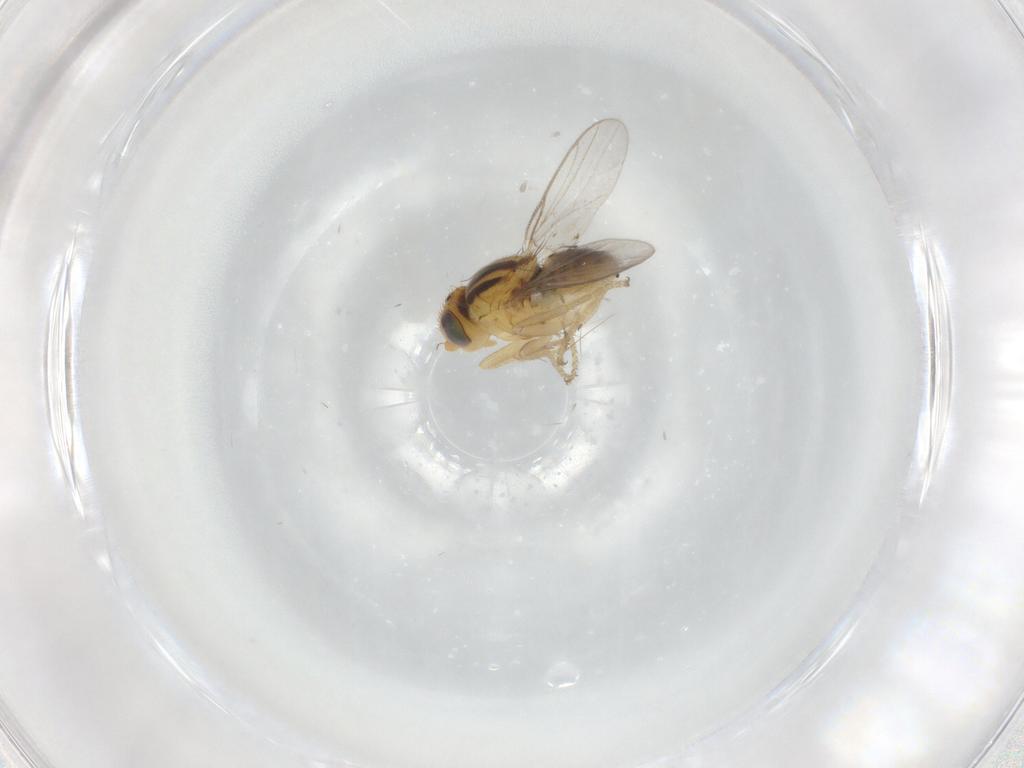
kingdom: Animalia
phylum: Arthropoda
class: Insecta
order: Diptera
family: Chloropidae
